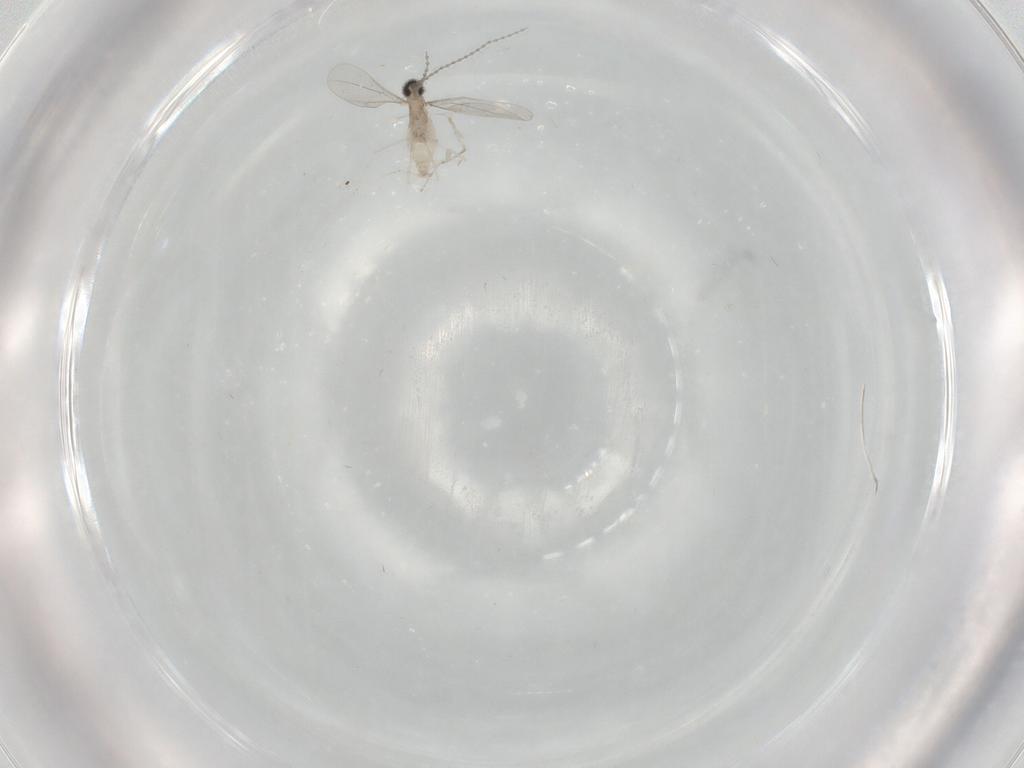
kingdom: Animalia
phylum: Arthropoda
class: Insecta
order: Diptera
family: Cecidomyiidae
